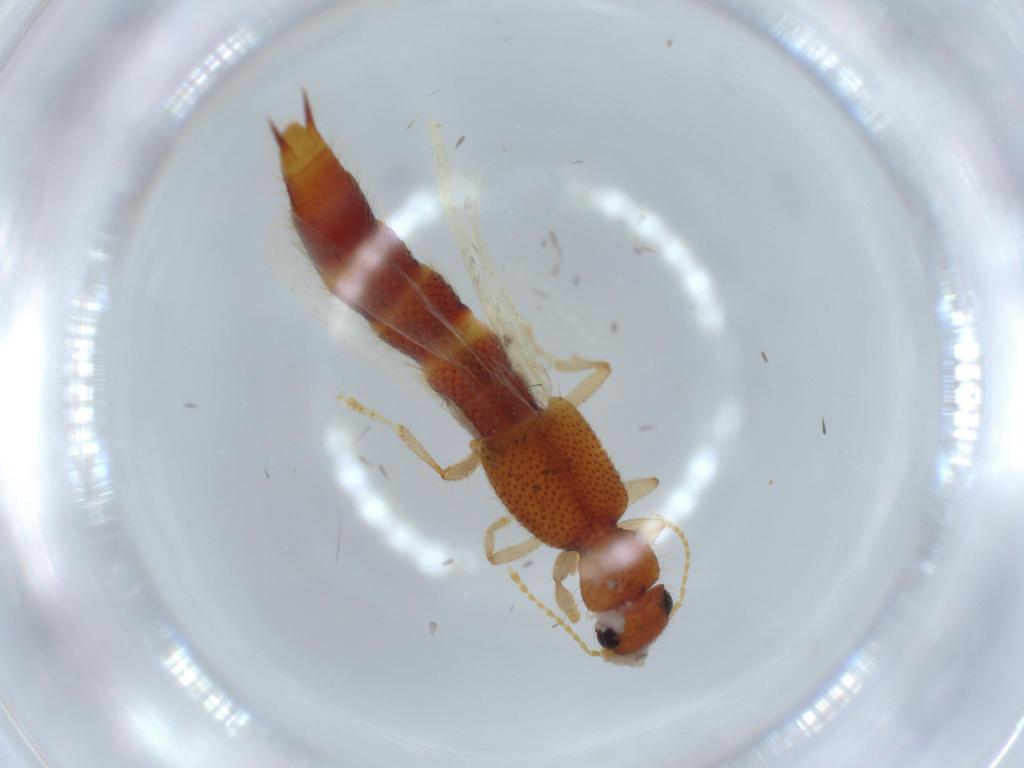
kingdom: Animalia
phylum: Arthropoda
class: Insecta
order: Coleoptera
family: Staphylinidae
